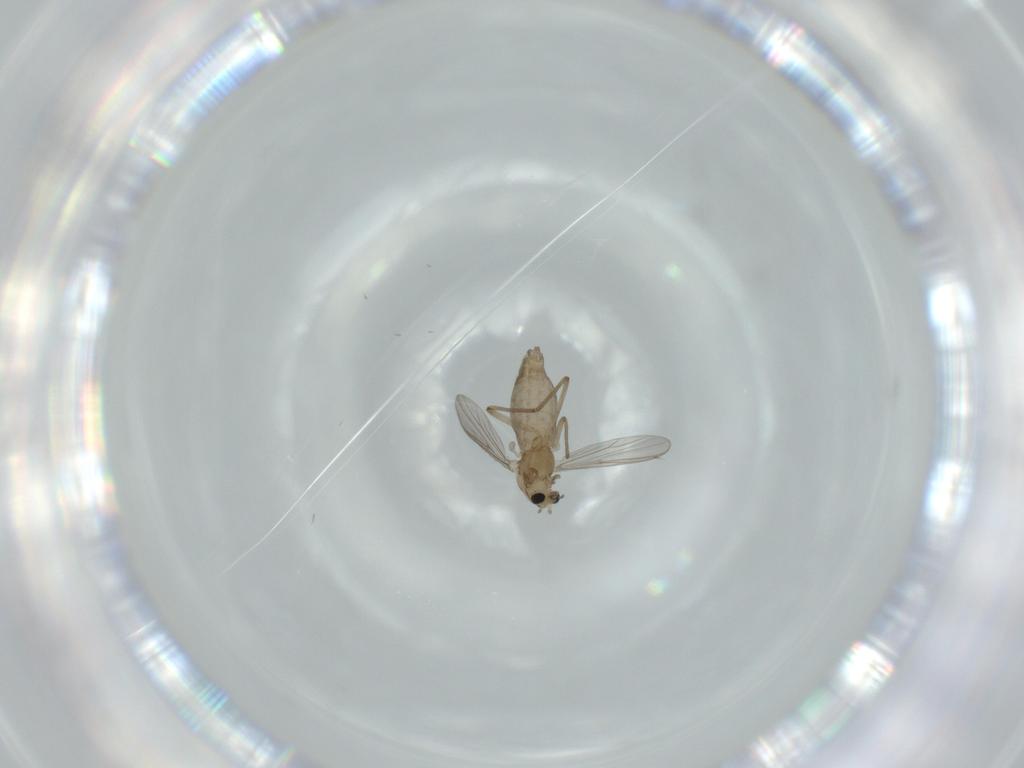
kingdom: Animalia
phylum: Arthropoda
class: Insecta
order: Diptera
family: Chironomidae
